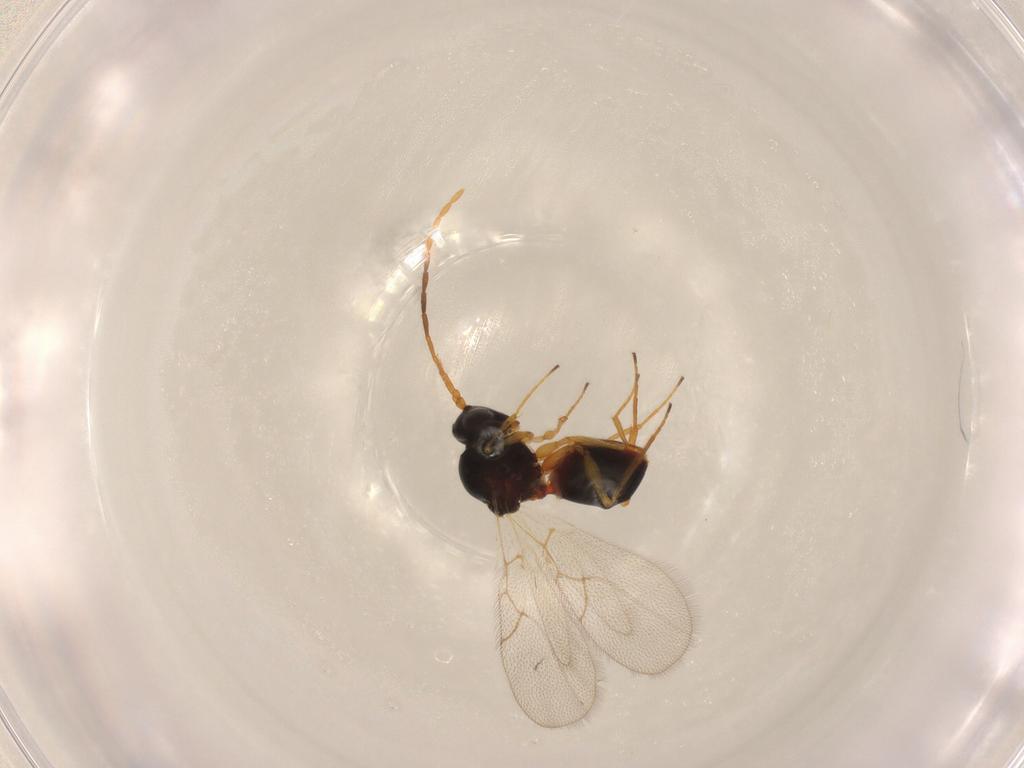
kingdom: Animalia
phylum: Arthropoda
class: Insecta
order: Hymenoptera
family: Figitidae
